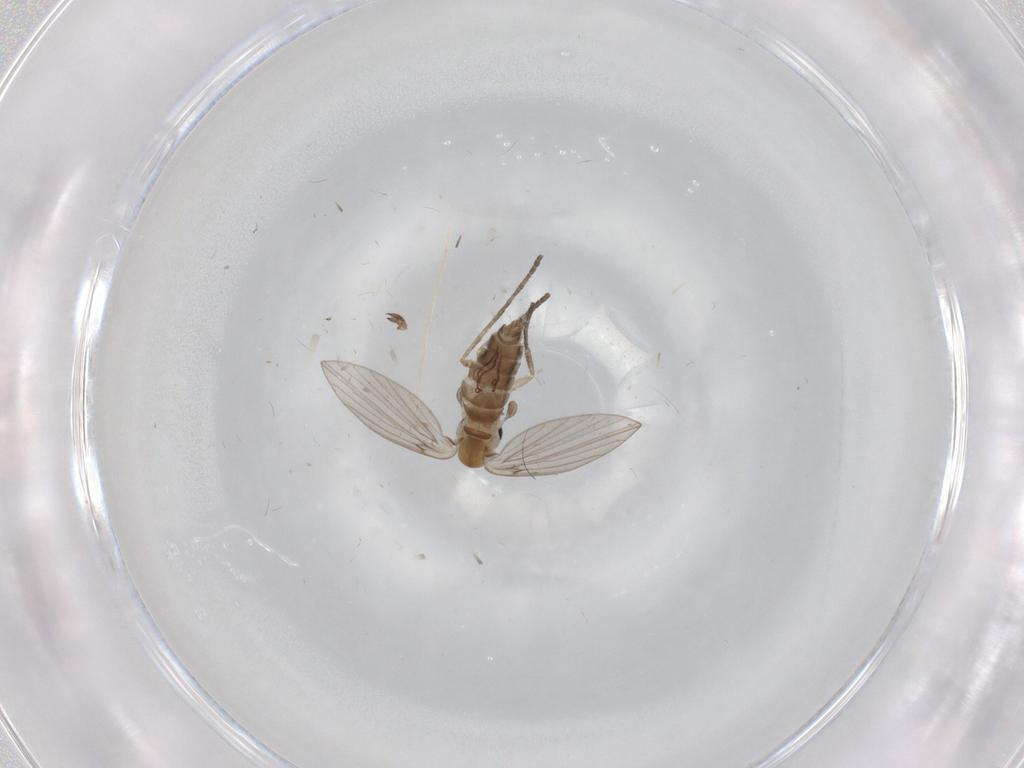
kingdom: Animalia
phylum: Arthropoda
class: Insecta
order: Diptera
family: Psychodidae
